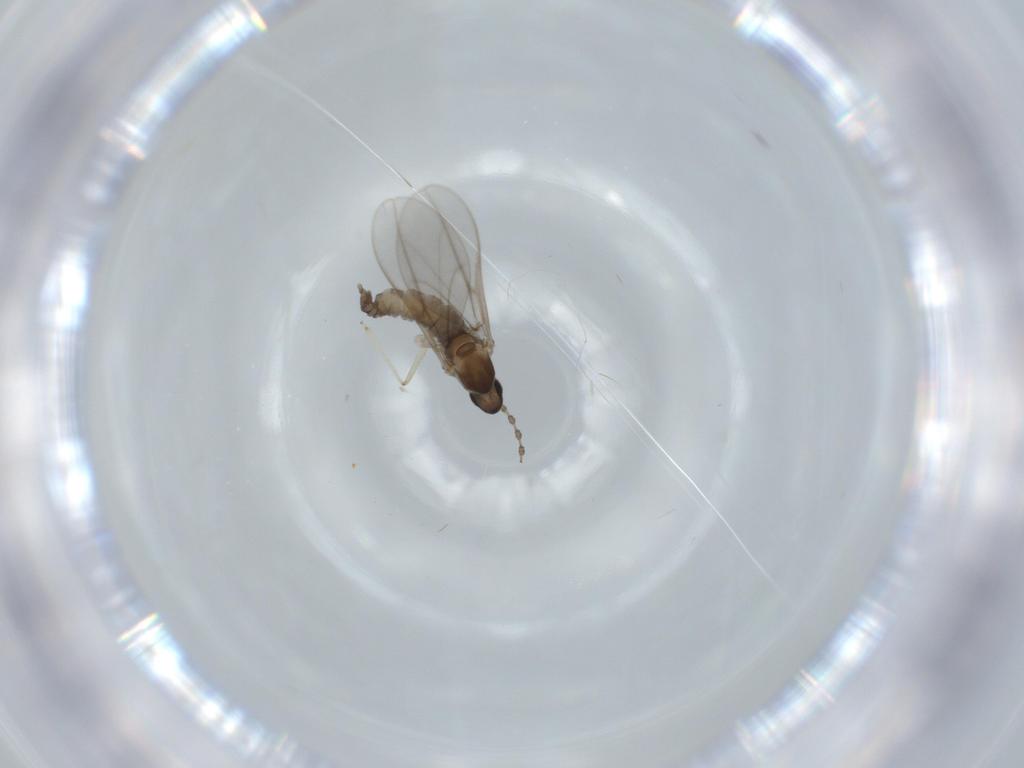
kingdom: Animalia
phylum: Arthropoda
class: Insecta
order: Diptera
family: Cecidomyiidae
